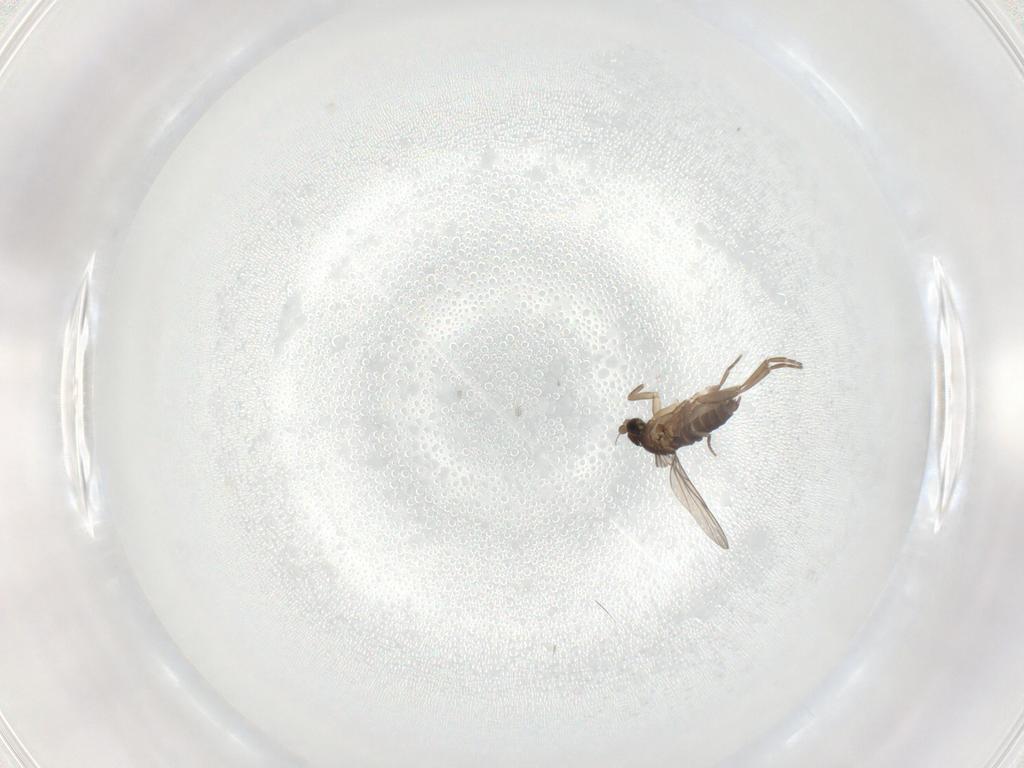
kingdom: Animalia
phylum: Arthropoda
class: Insecta
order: Diptera
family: Phoridae
